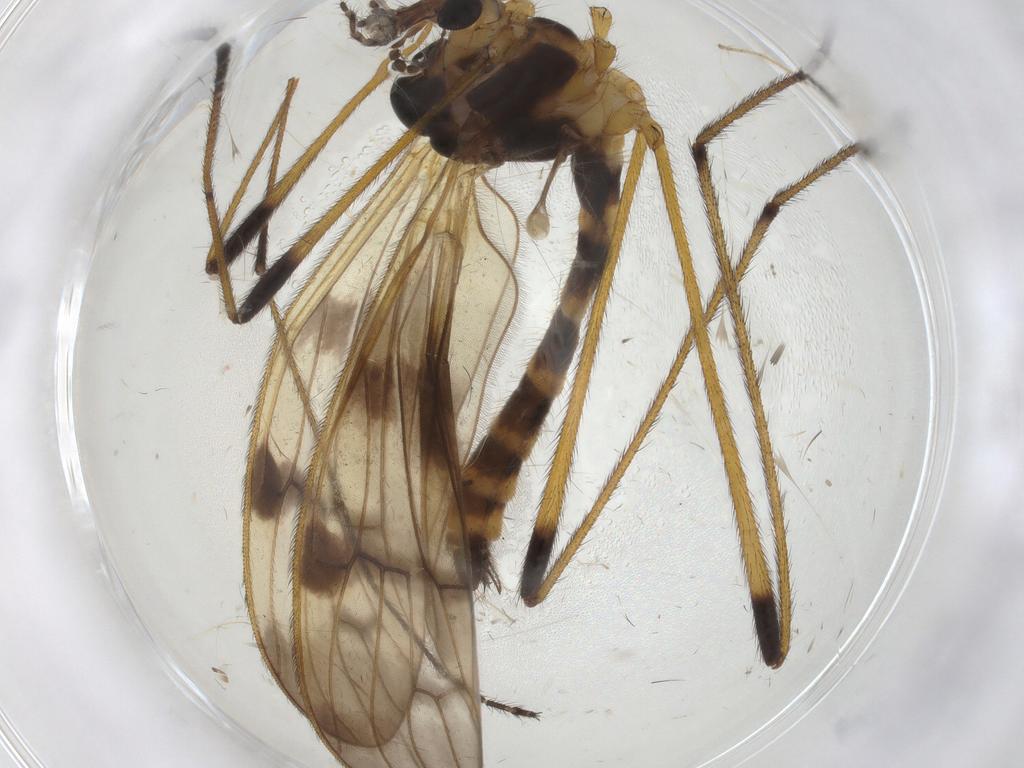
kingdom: Animalia
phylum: Arthropoda
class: Insecta
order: Diptera
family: Limoniidae
